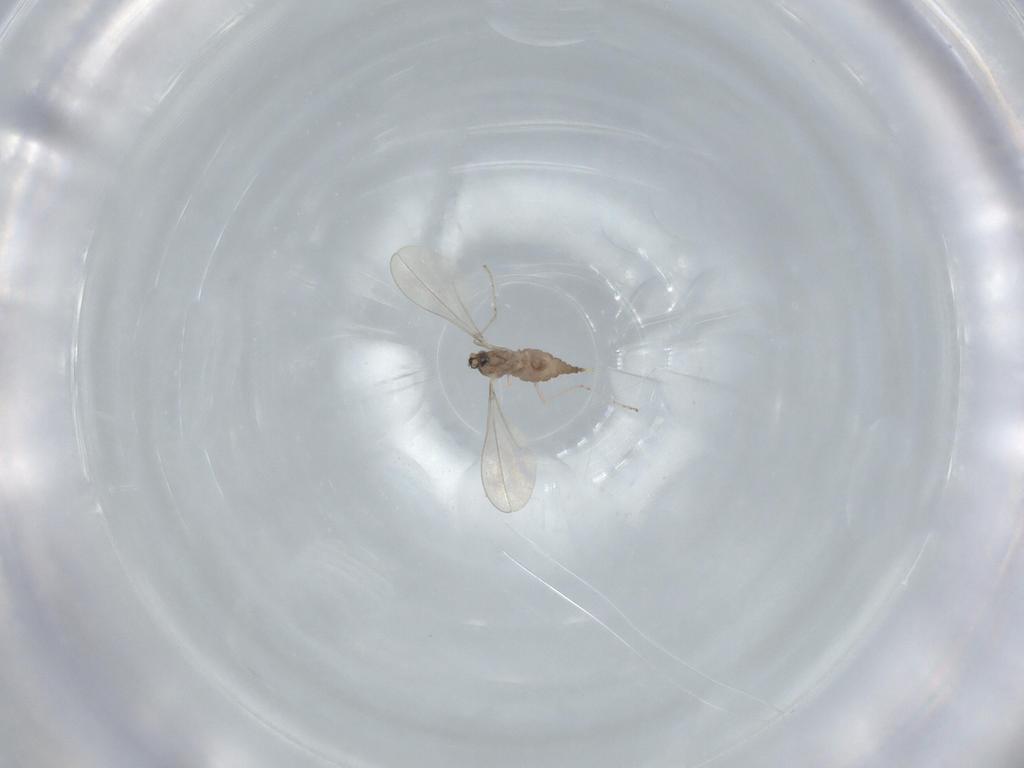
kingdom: Animalia
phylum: Arthropoda
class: Insecta
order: Diptera
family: Cecidomyiidae
